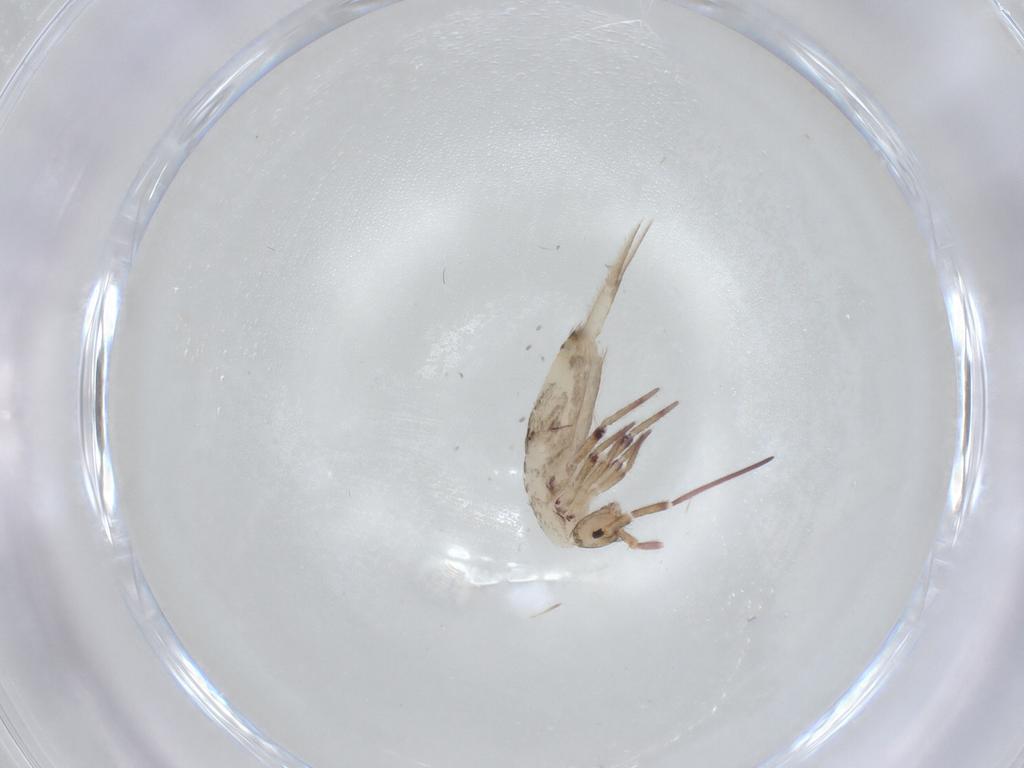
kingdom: Animalia
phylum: Arthropoda
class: Collembola
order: Entomobryomorpha
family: Entomobryidae
